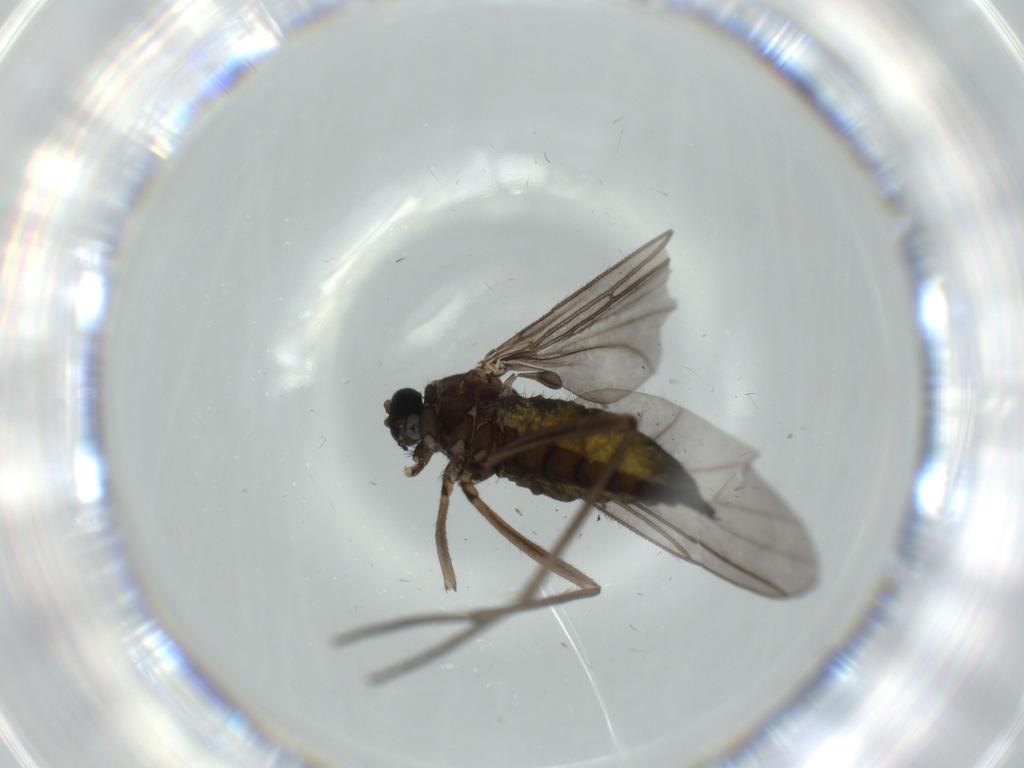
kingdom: Animalia
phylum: Arthropoda
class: Insecta
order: Diptera
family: Sciaridae
